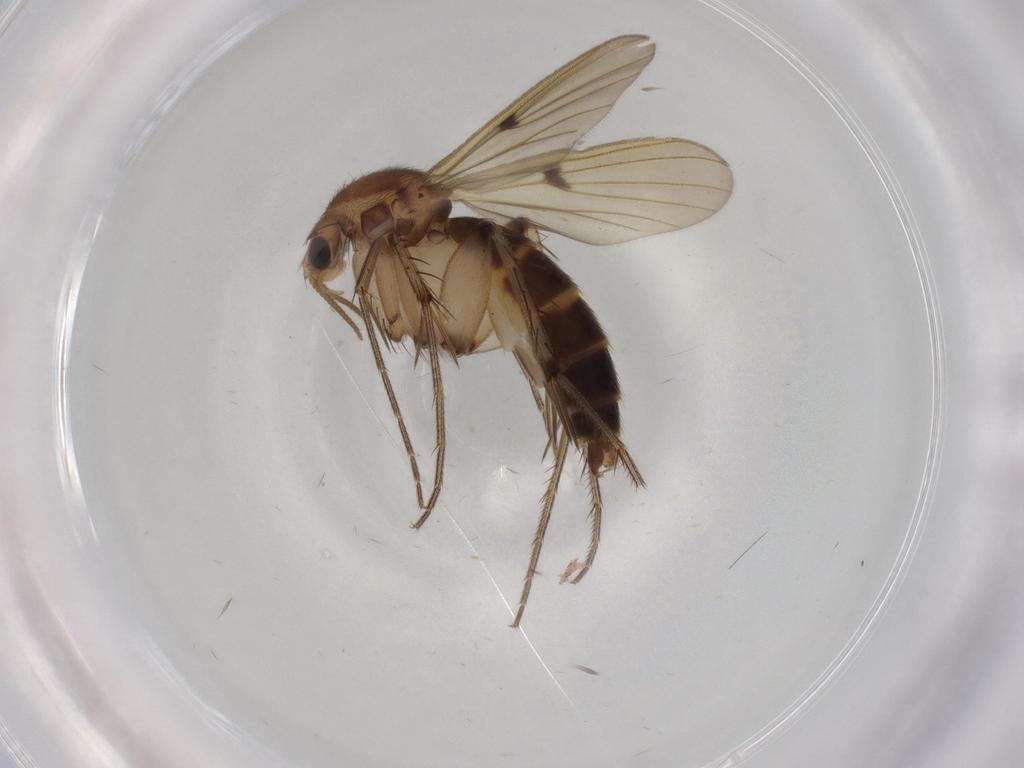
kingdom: Animalia
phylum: Arthropoda
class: Insecta
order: Diptera
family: Mycetophilidae
